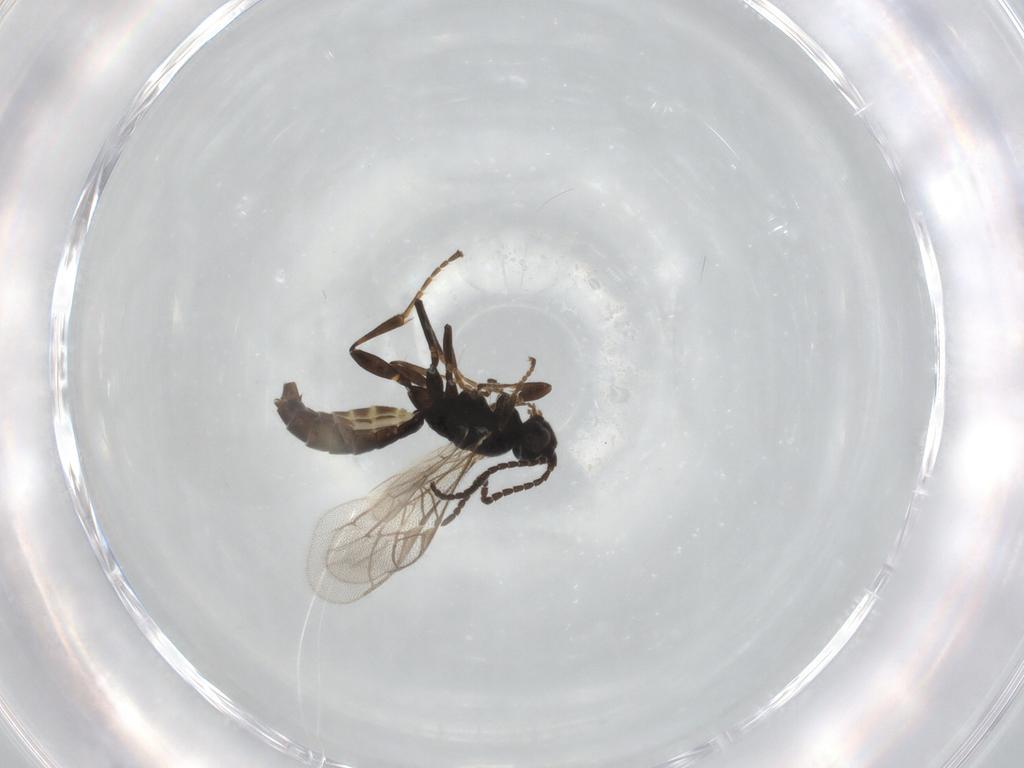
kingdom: Animalia
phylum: Arthropoda
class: Insecta
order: Hymenoptera
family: Ichneumonidae
